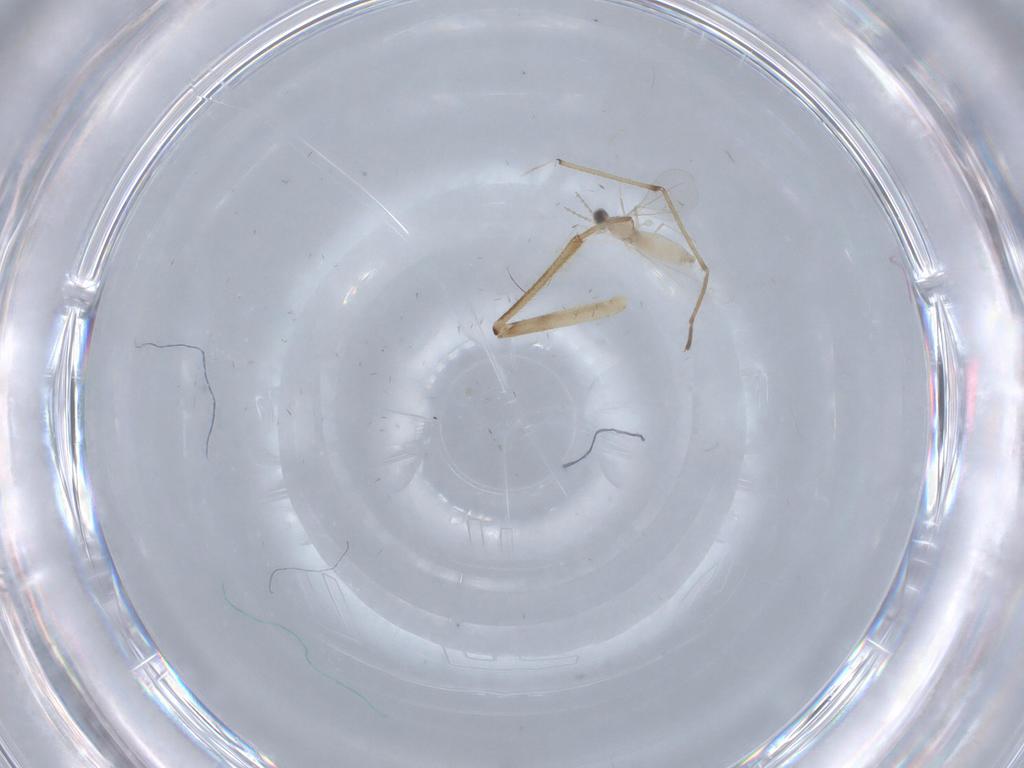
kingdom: Animalia
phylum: Arthropoda
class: Insecta
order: Diptera
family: Cecidomyiidae
